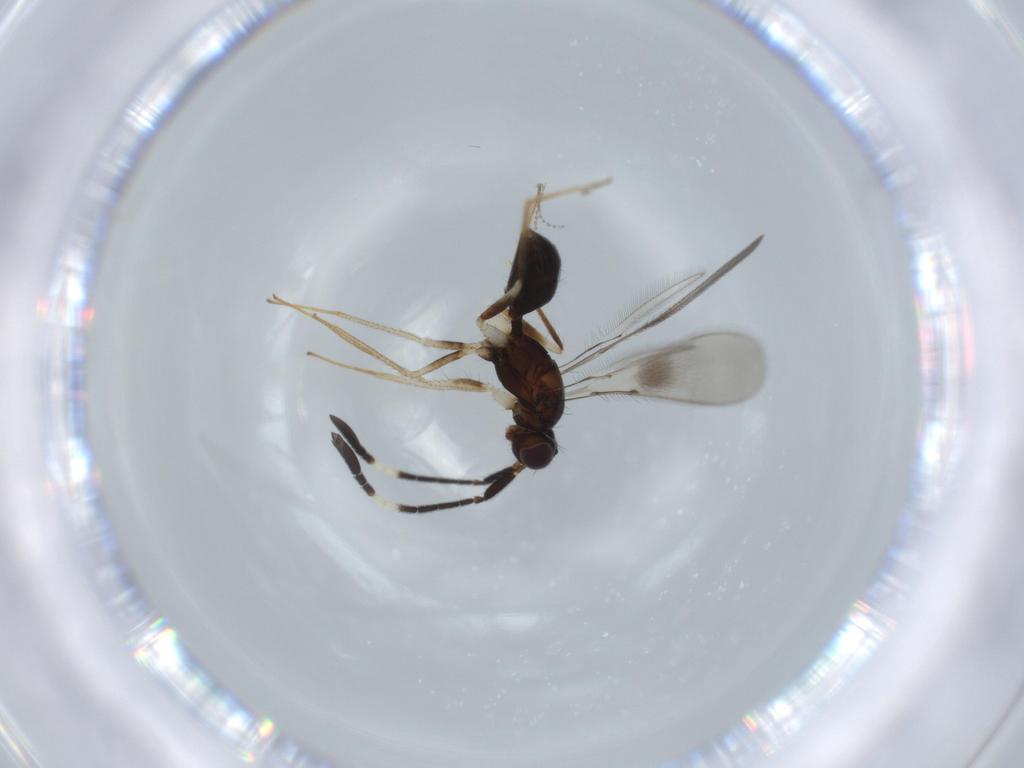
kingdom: Animalia
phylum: Arthropoda
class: Insecta
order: Hymenoptera
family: Mymaridae
